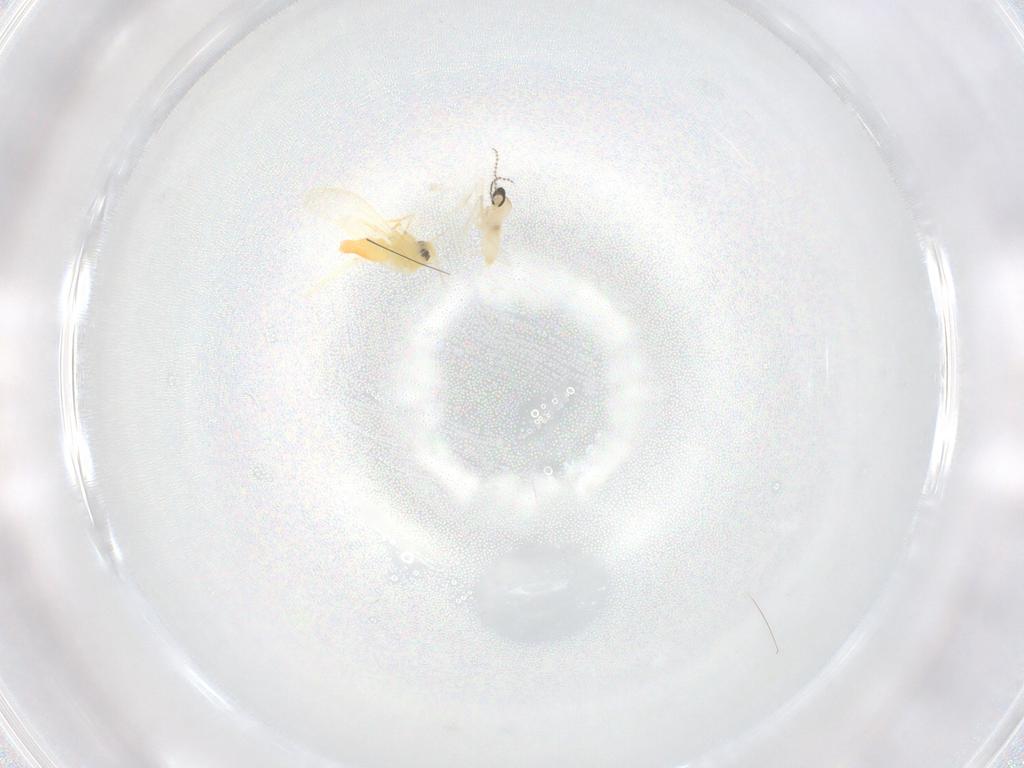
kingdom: Animalia
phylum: Arthropoda
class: Insecta
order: Diptera
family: Cecidomyiidae
